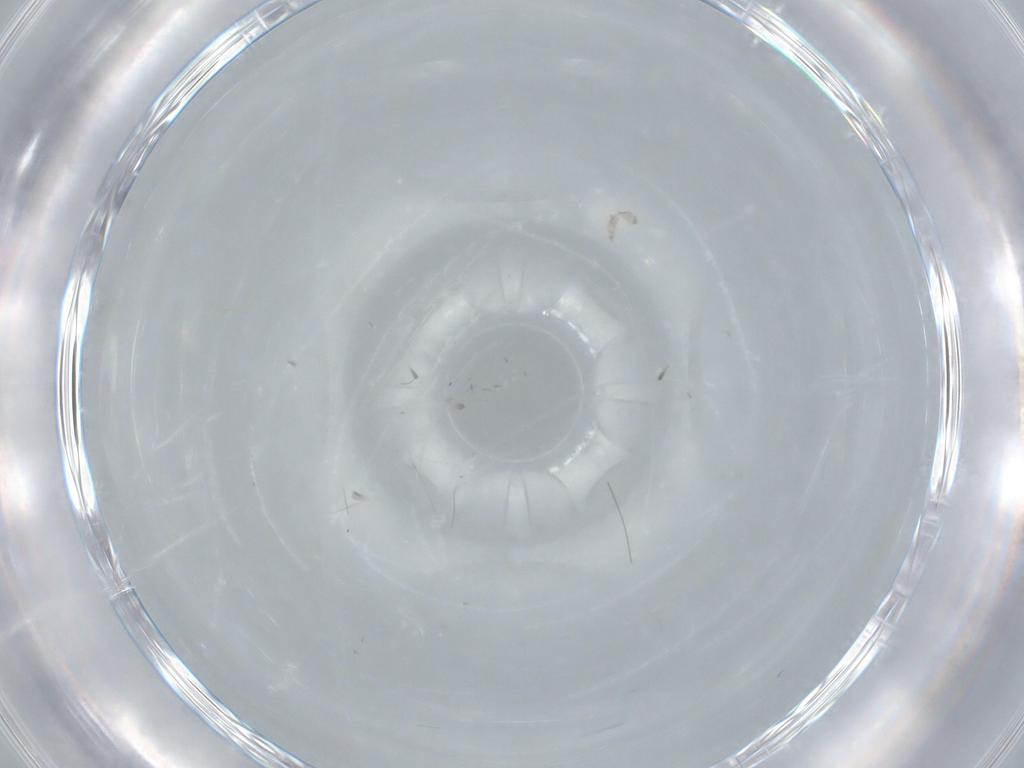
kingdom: Animalia
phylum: Arthropoda
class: Insecta
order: Diptera
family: Phoridae
